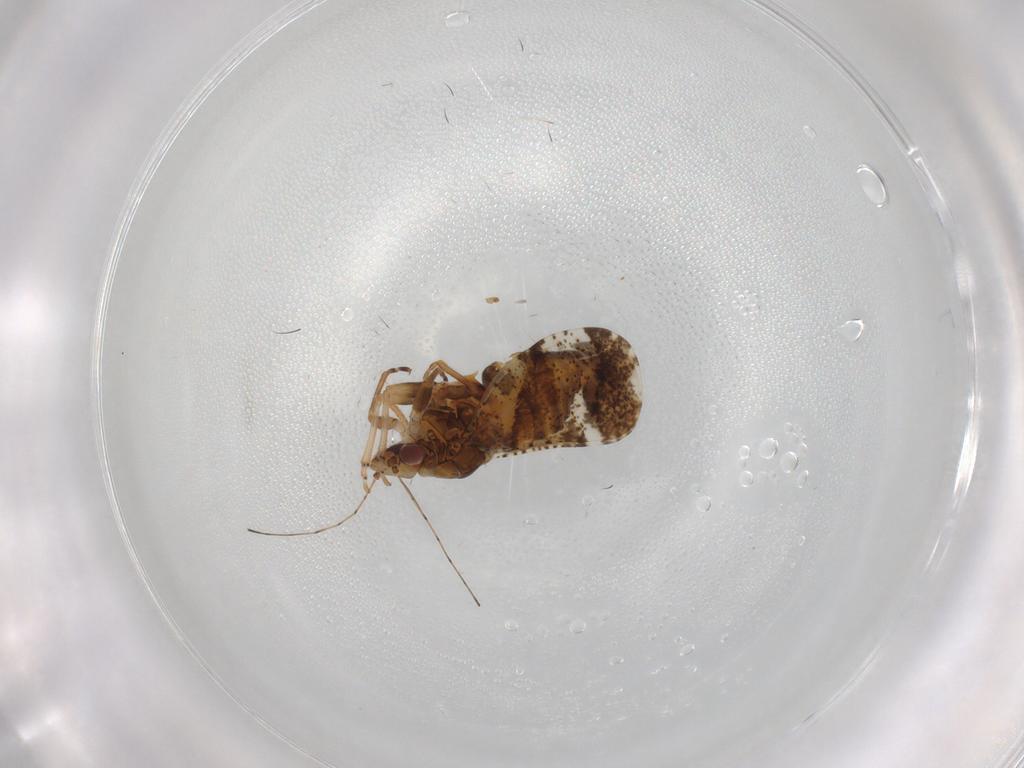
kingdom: Animalia
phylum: Arthropoda
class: Insecta
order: Hemiptera
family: Psyllidae
